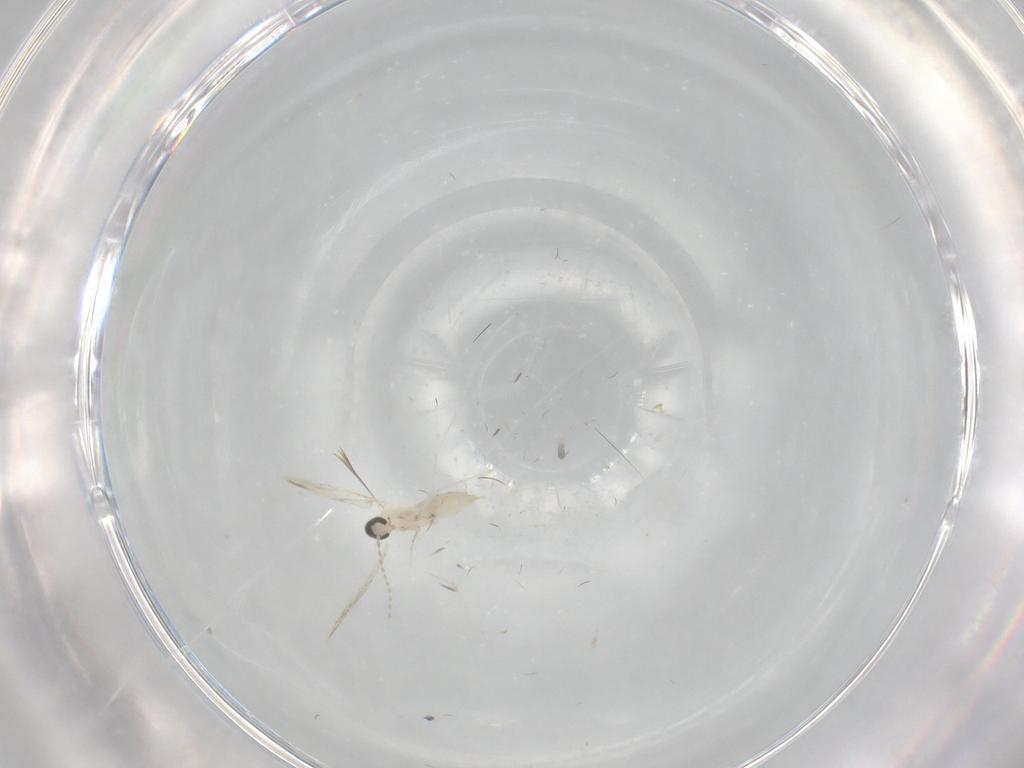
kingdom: Animalia
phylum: Arthropoda
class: Insecta
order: Diptera
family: Cecidomyiidae
